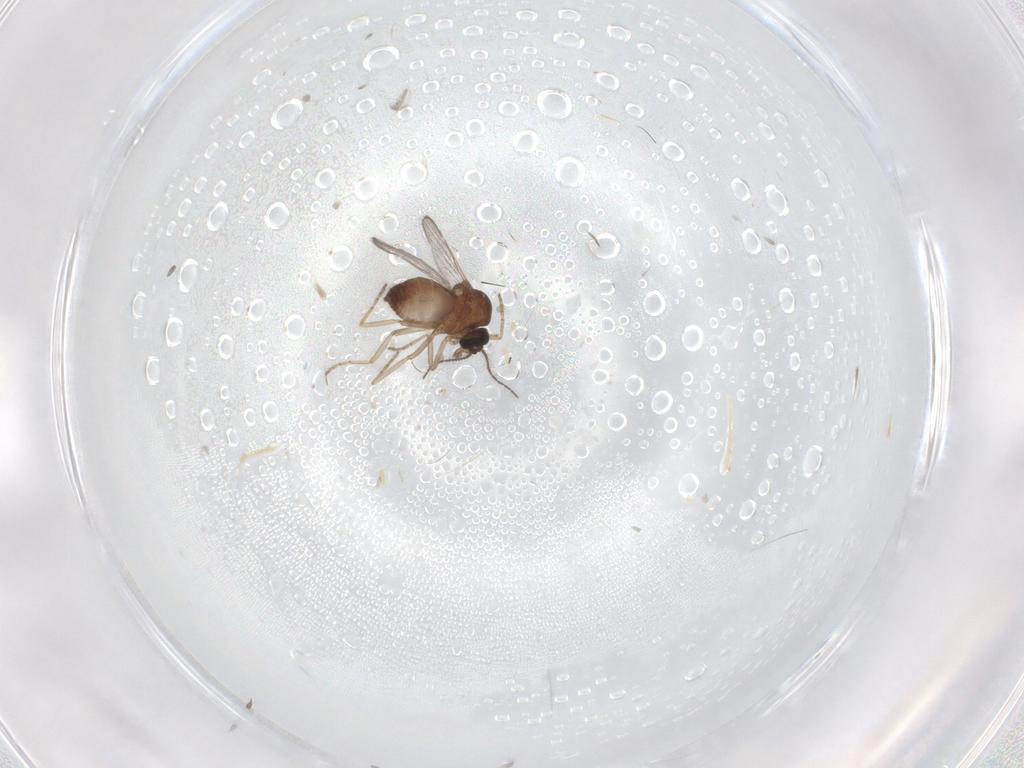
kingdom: Animalia
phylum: Arthropoda
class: Insecta
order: Diptera
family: Ceratopogonidae
